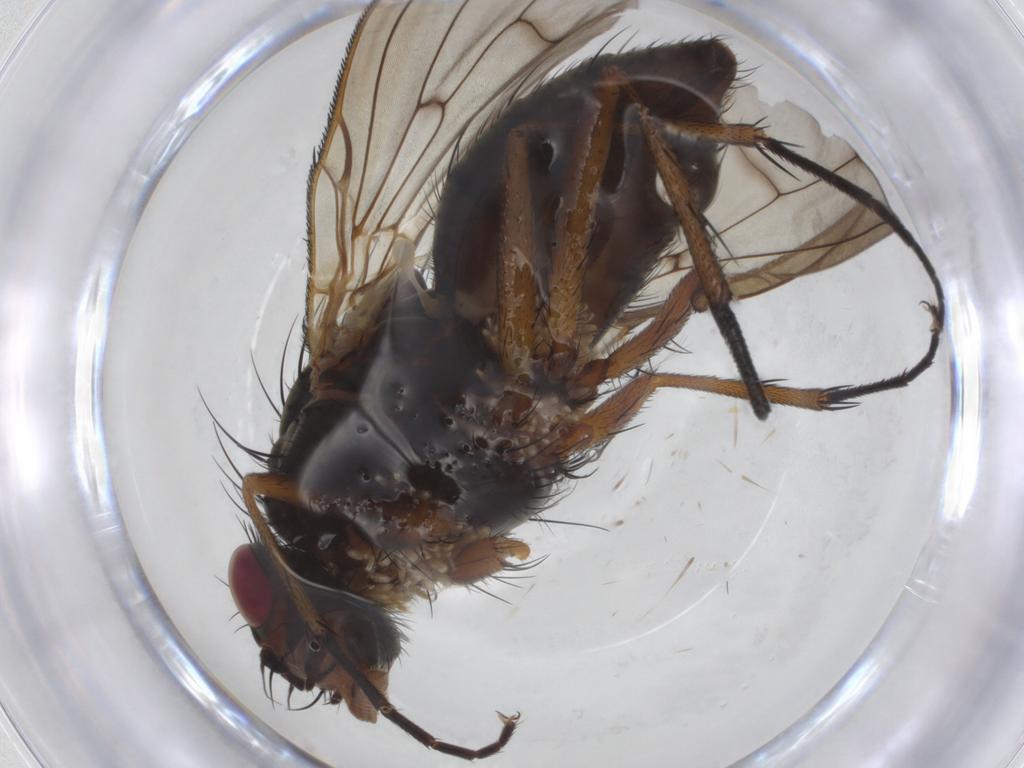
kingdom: Animalia
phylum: Arthropoda
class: Insecta
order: Diptera
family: Anthomyiidae
